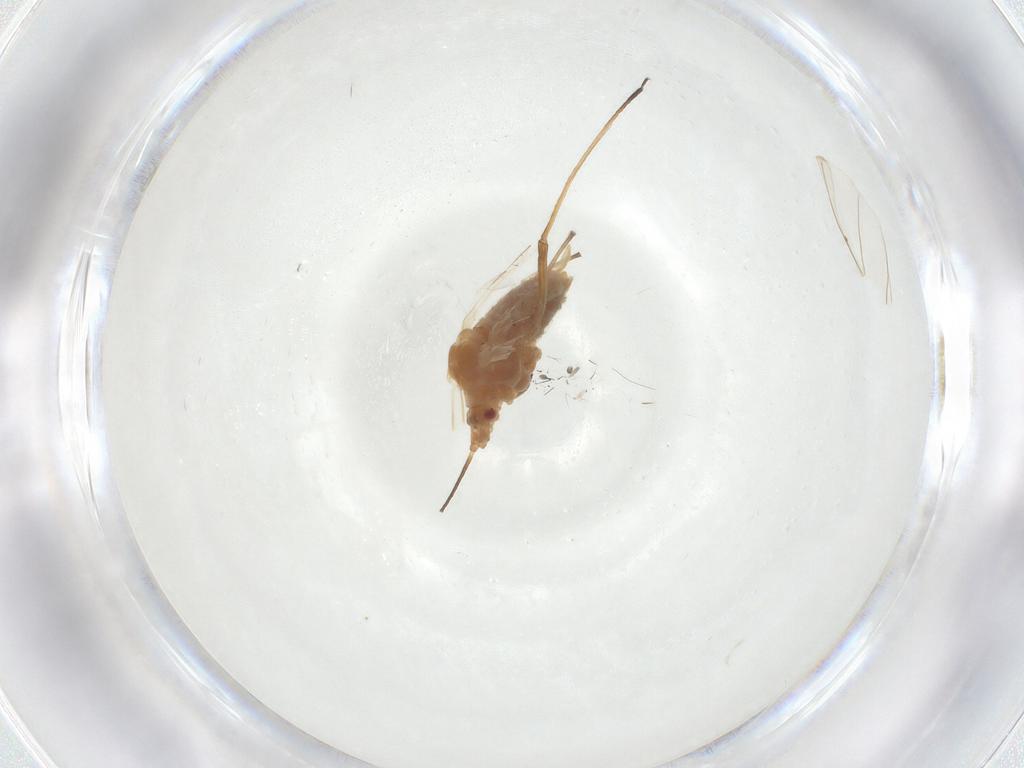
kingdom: Animalia
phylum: Arthropoda
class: Insecta
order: Hemiptera
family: Aphididae
